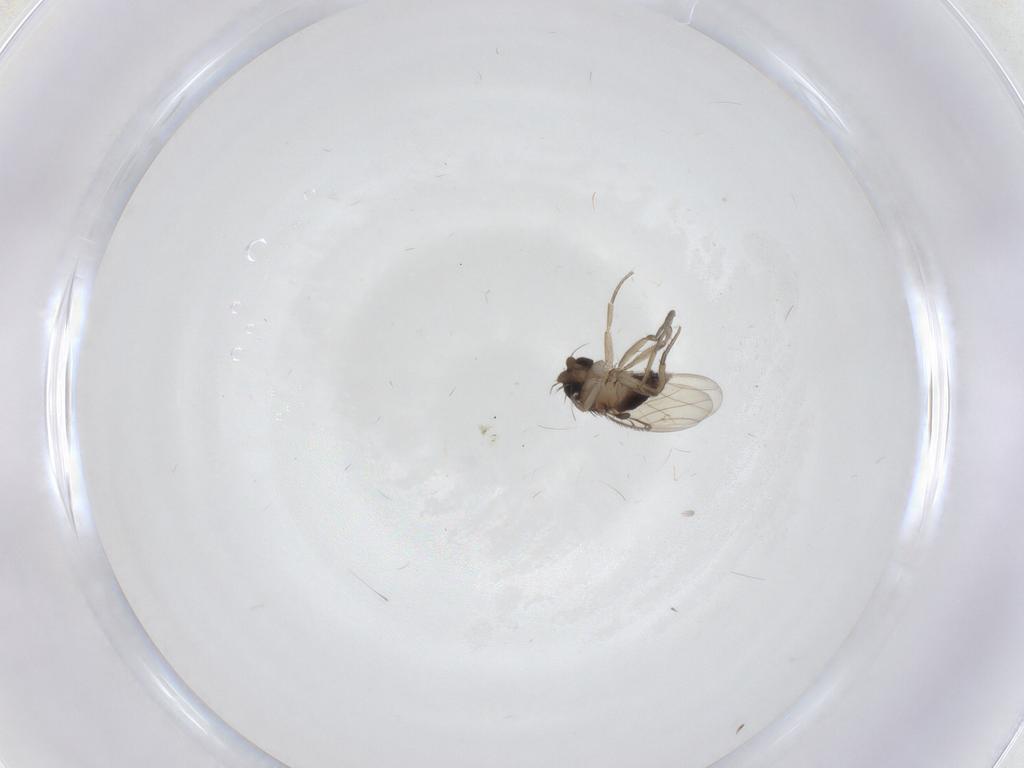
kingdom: Animalia
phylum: Arthropoda
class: Insecta
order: Diptera
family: Phoridae
